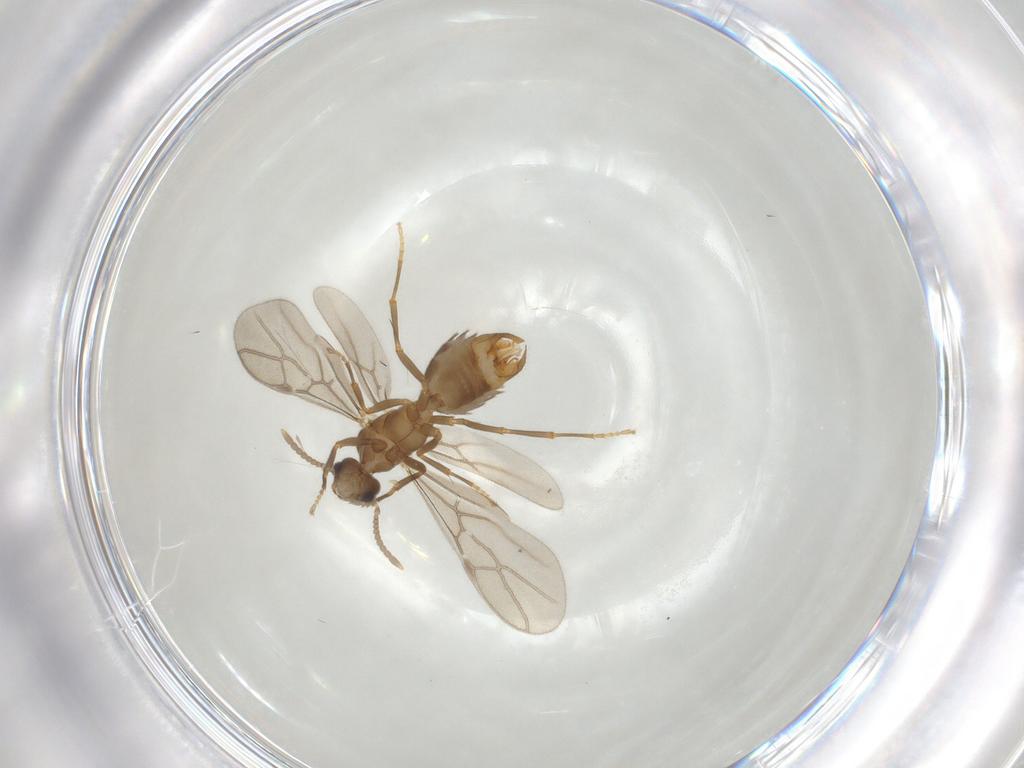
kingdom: Animalia
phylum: Arthropoda
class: Insecta
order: Hymenoptera
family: Formicidae
